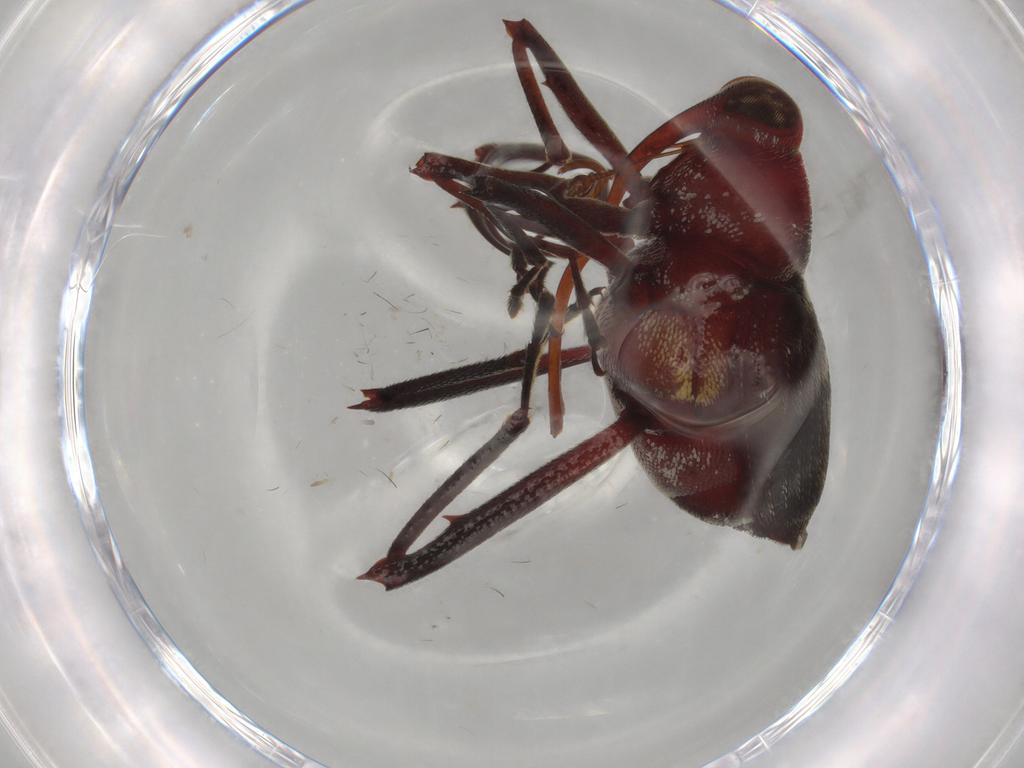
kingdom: Animalia
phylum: Arthropoda
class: Insecta
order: Coleoptera
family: Curculionidae
